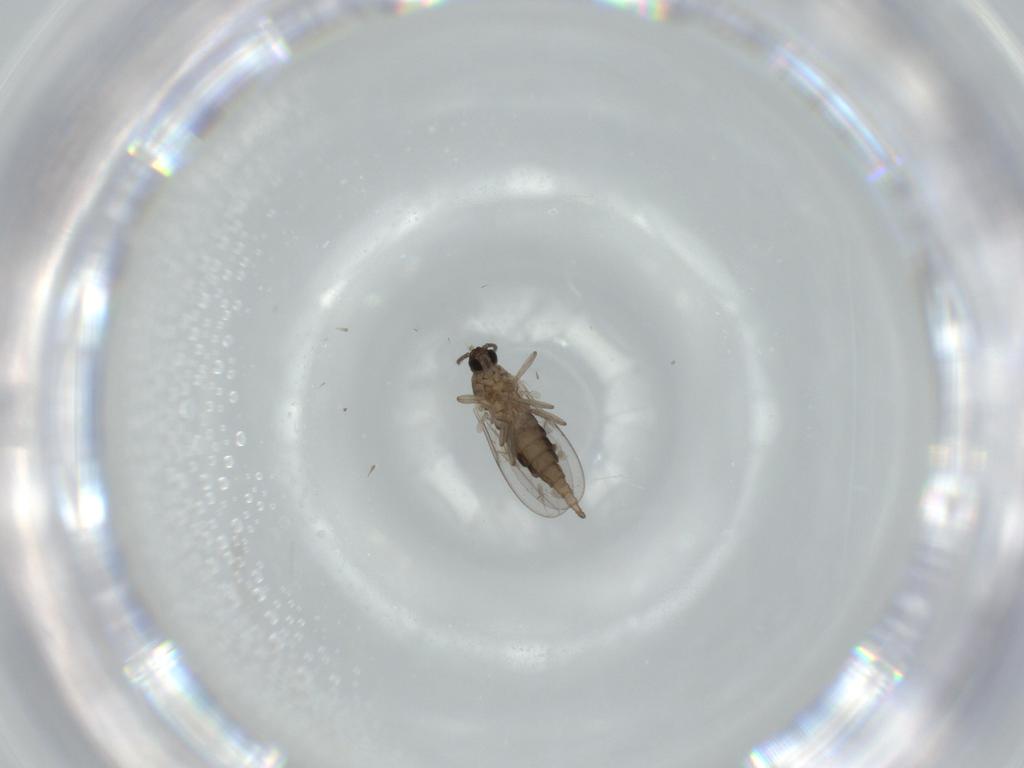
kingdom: Animalia
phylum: Arthropoda
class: Insecta
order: Diptera
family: Cecidomyiidae
